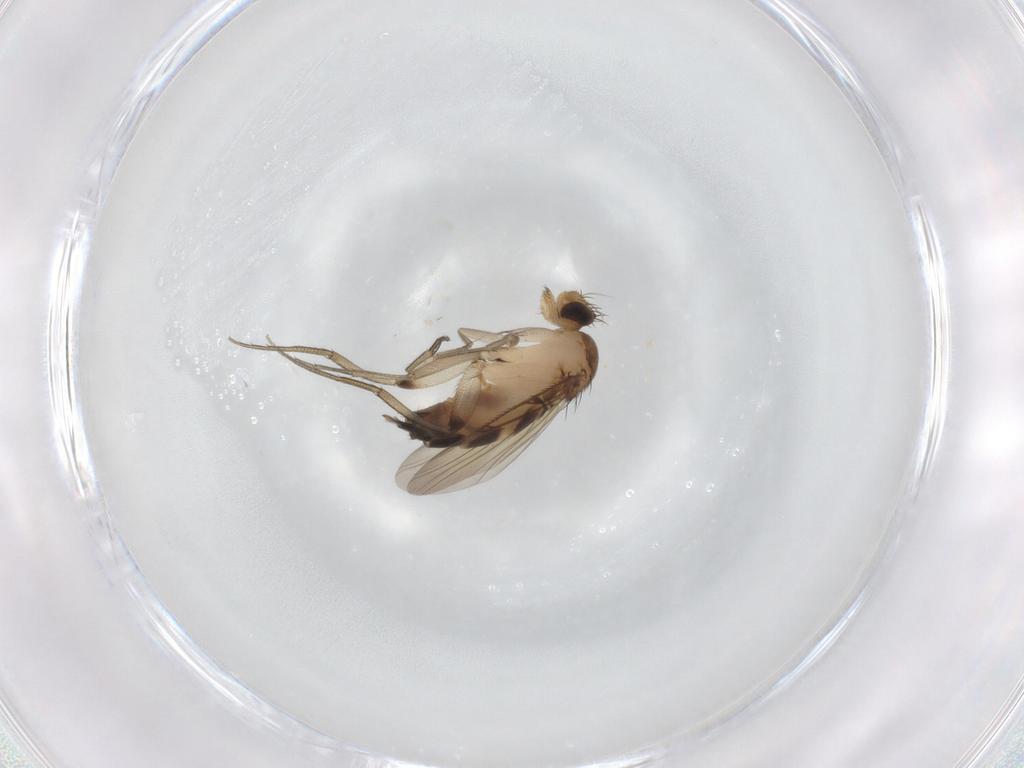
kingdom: Animalia
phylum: Arthropoda
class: Insecta
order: Diptera
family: Phoridae
